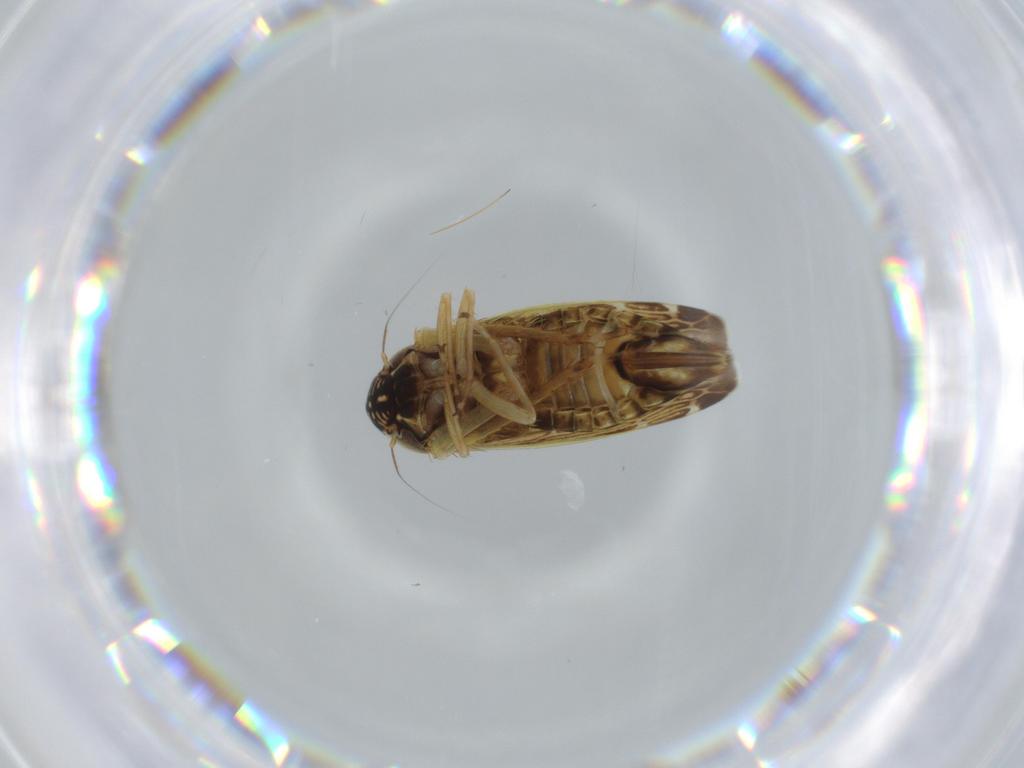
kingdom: Animalia
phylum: Arthropoda
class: Insecta
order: Hemiptera
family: Cicadellidae
